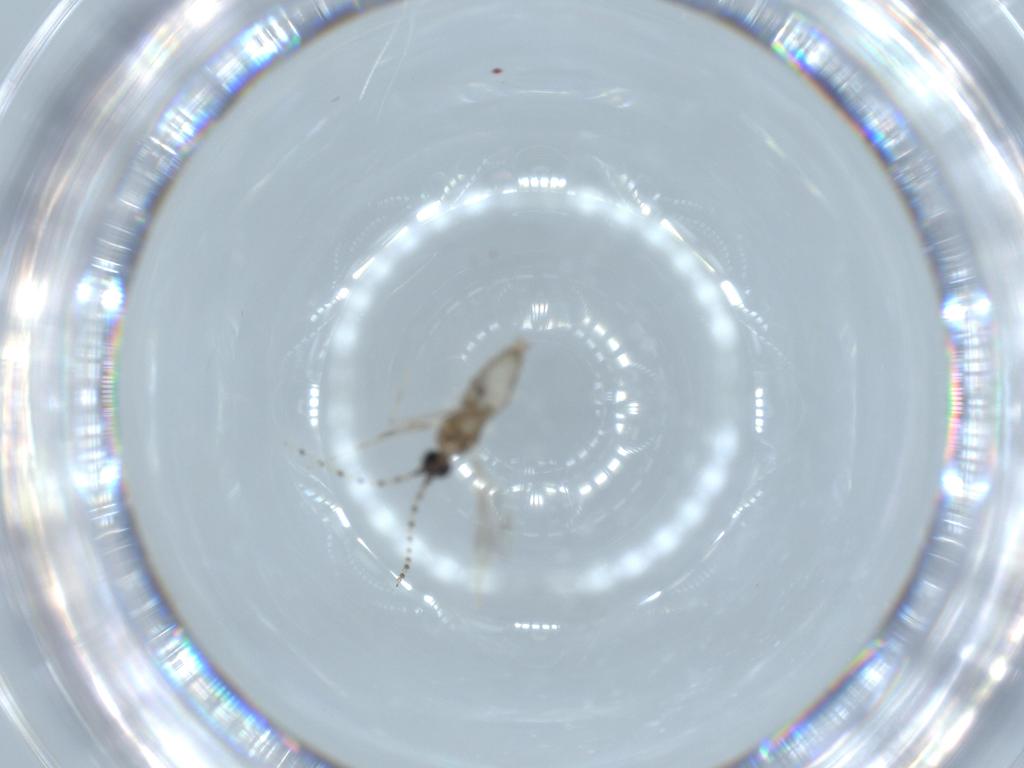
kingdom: Animalia
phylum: Arthropoda
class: Insecta
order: Diptera
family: Cecidomyiidae
